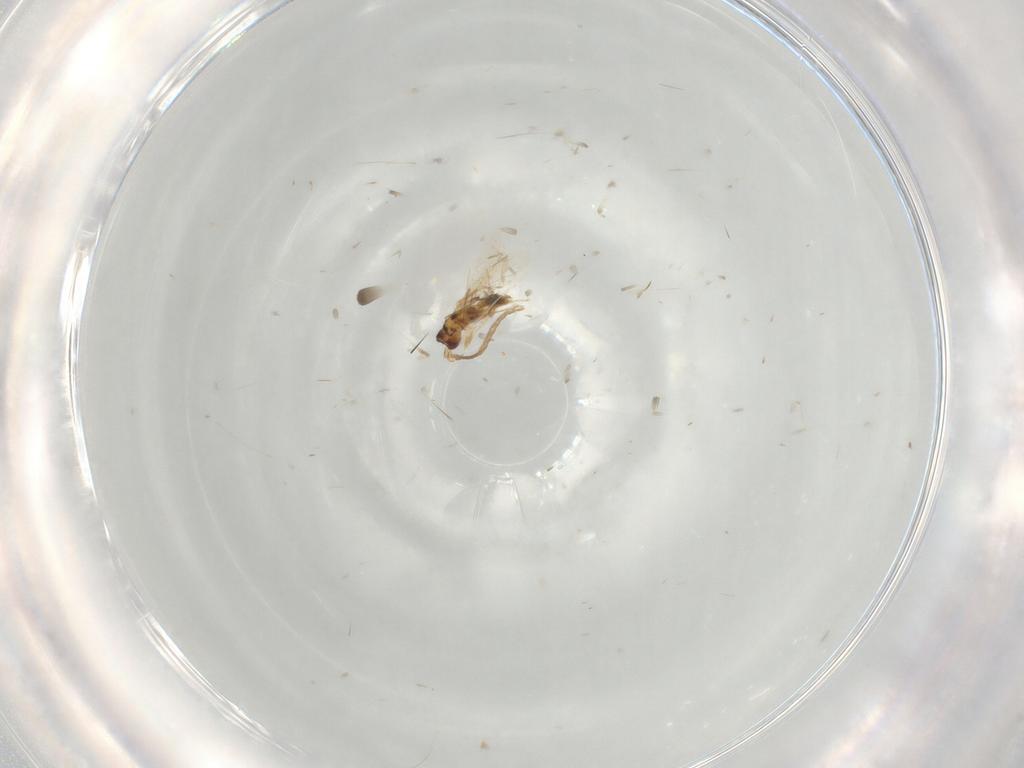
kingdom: Animalia
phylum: Arthropoda
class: Insecta
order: Hymenoptera
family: Mymaridae
